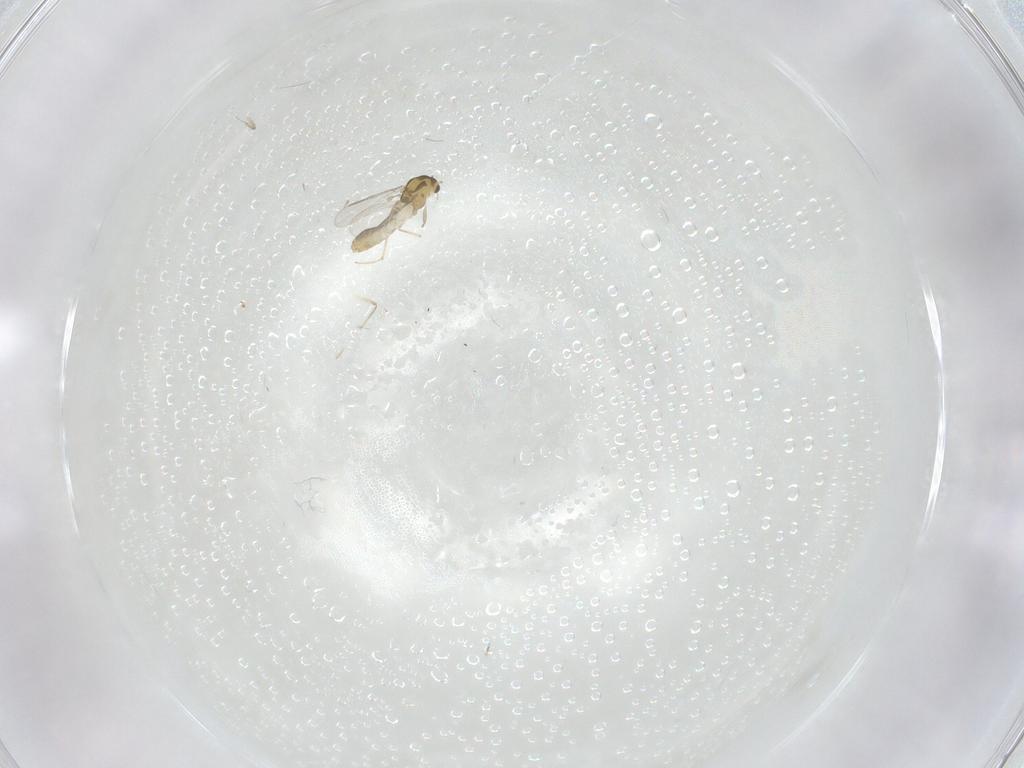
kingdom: Animalia
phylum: Arthropoda
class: Insecta
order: Diptera
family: Chironomidae
